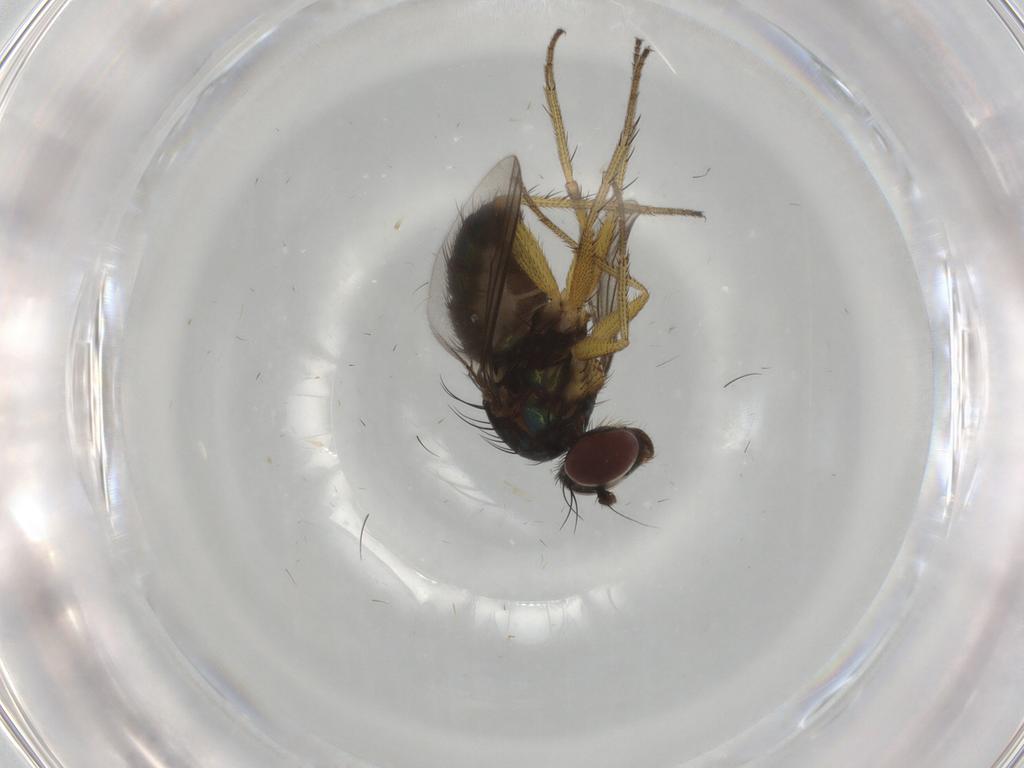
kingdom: Animalia
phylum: Arthropoda
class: Insecta
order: Diptera
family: Dolichopodidae
